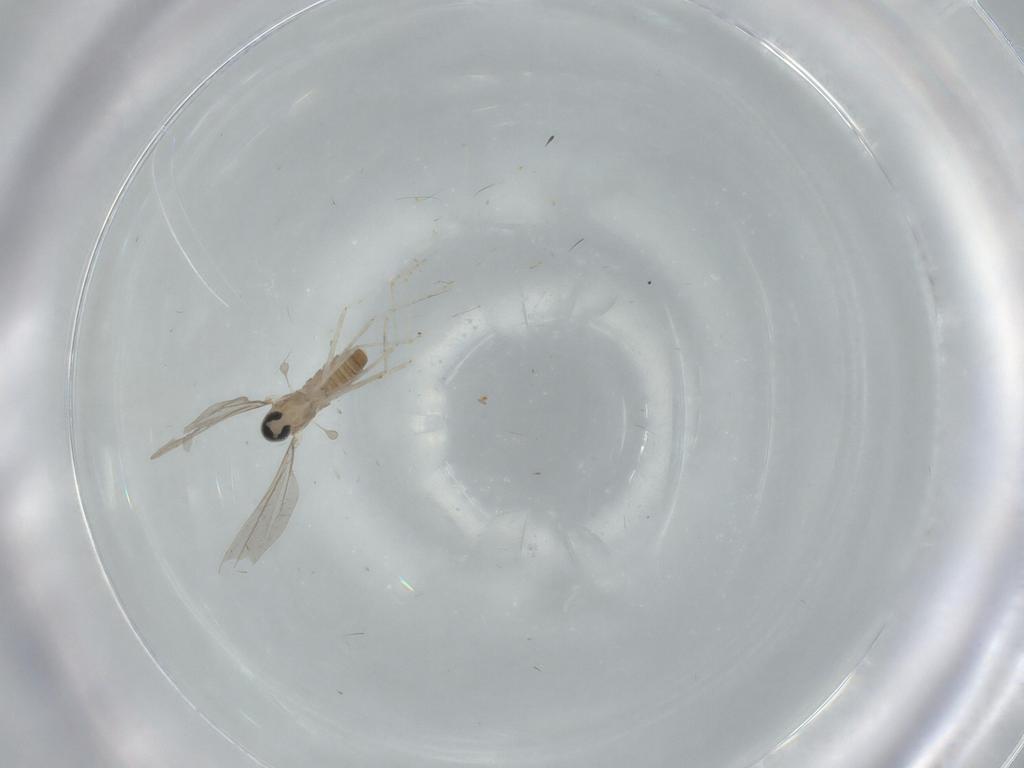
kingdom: Animalia
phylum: Arthropoda
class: Insecta
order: Diptera
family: Cecidomyiidae
